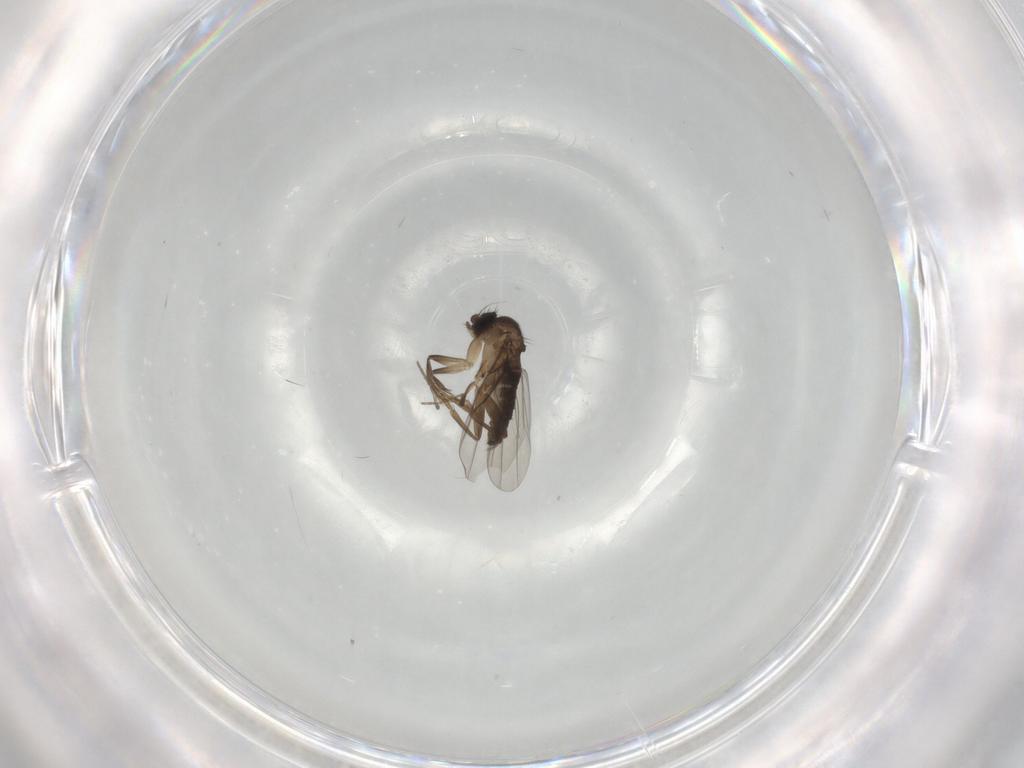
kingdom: Animalia
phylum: Arthropoda
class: Insecta
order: Diptera
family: Phoridae
